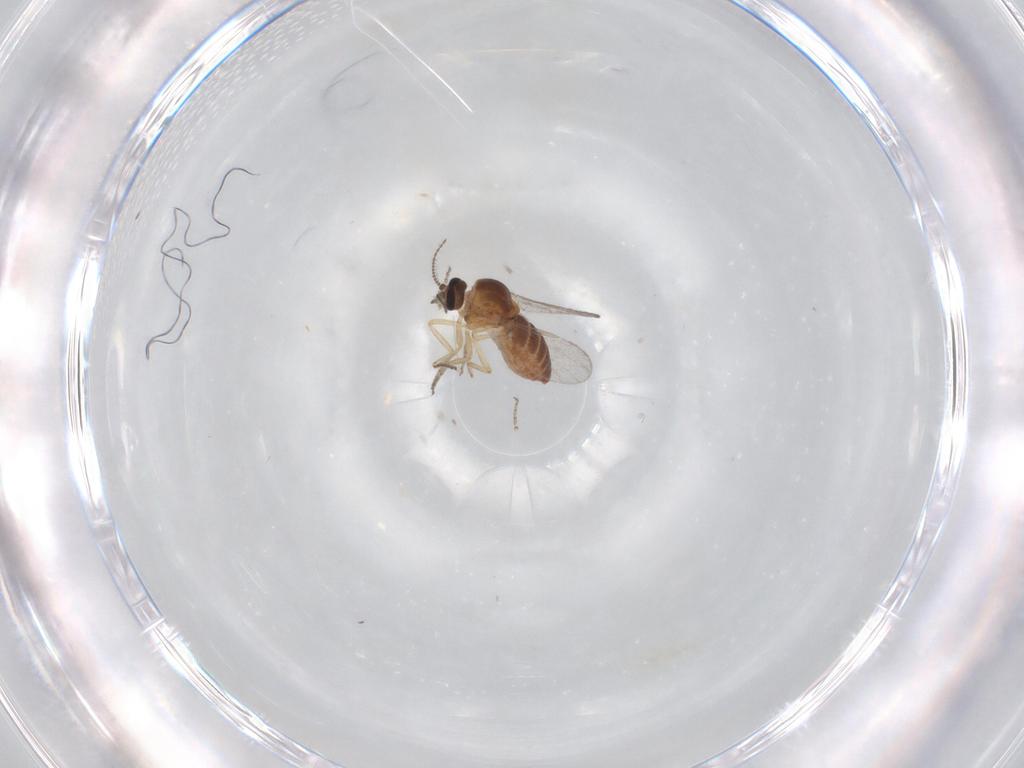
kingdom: Animalia
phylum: Arthropoda
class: Insecta
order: Diptera
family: Ceratopogonidae
